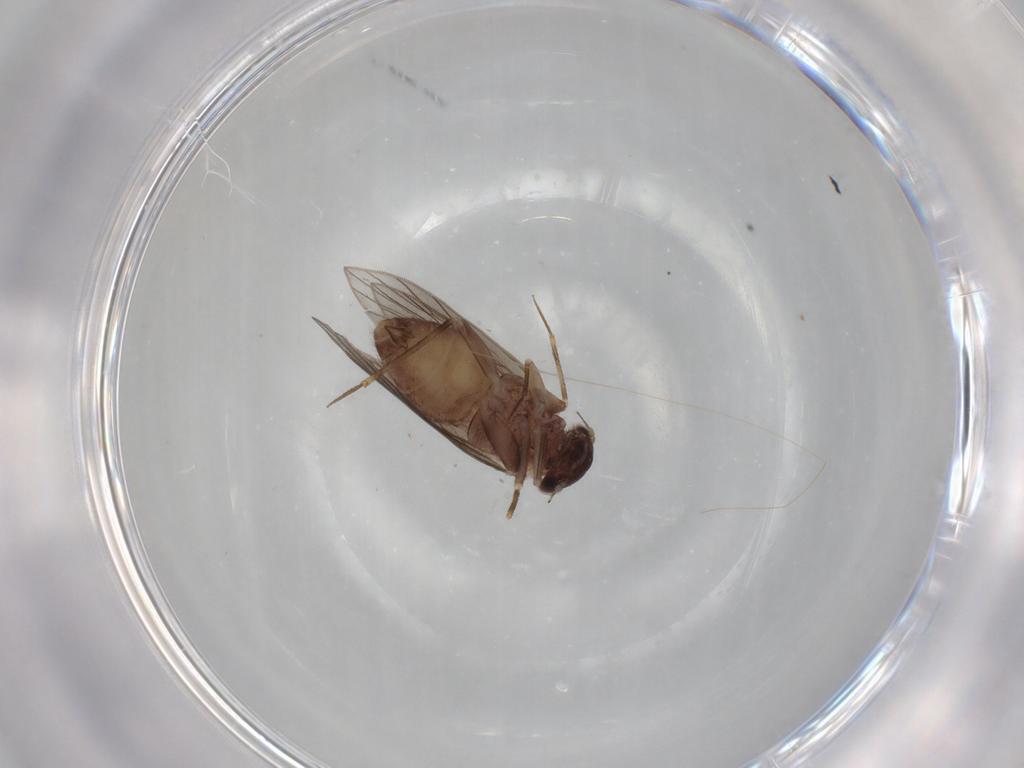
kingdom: Animalia
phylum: Arthropoda
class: Insecta
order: Psocodea
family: Lepidopsocidae
